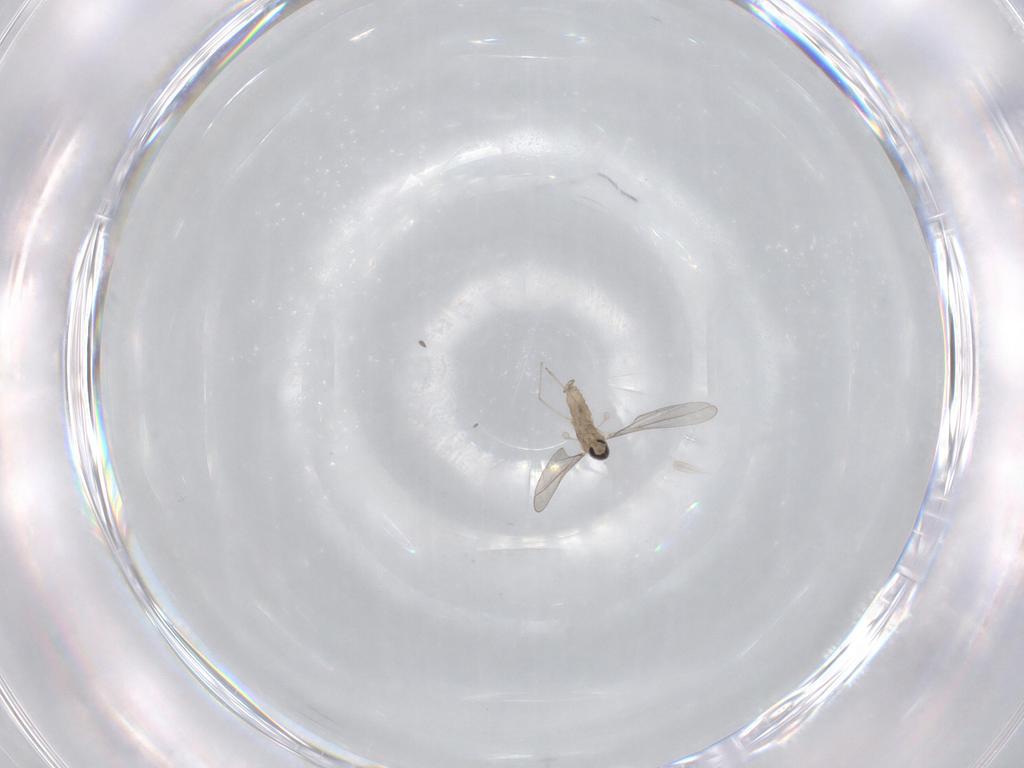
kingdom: Animalia
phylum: Arthropoda
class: Insecta
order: Diptera
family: Cecidomyiidae
